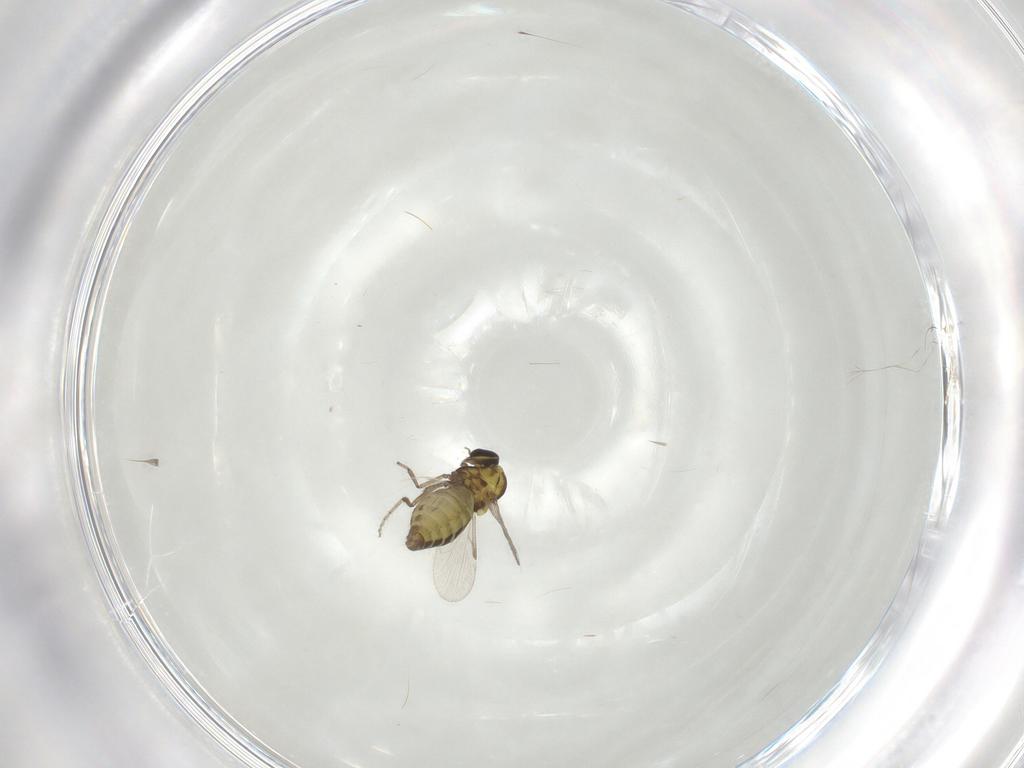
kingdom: Animalia
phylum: Arthropoda
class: Insecta
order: Diptera
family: Ceratopogonidae
